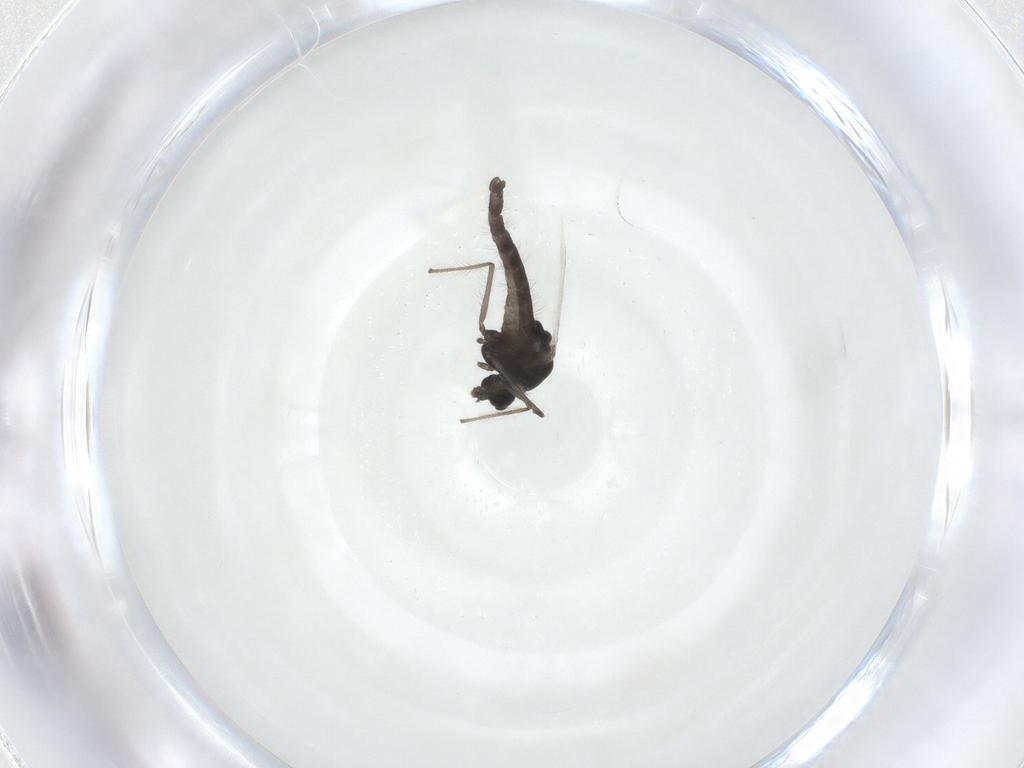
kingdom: Animalia
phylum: Arthropoda
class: Insecta
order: Diptera
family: Chironomidae
